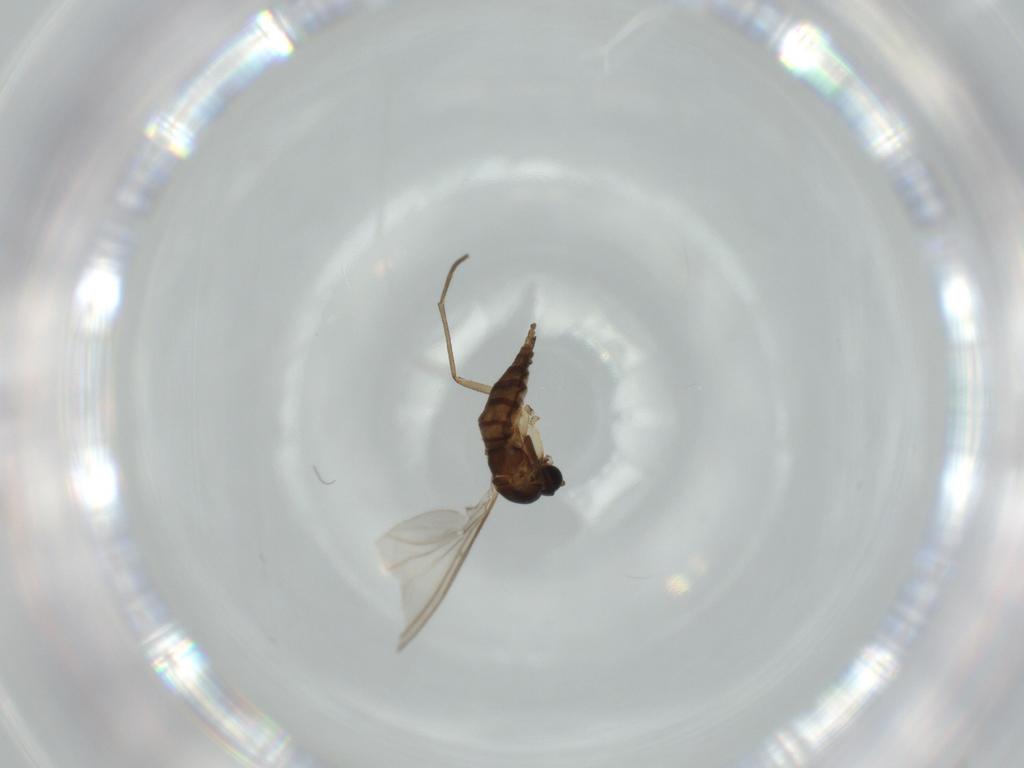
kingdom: Animalia
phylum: Arthropoda
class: Insecta
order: Diptera
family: Sciaridae
